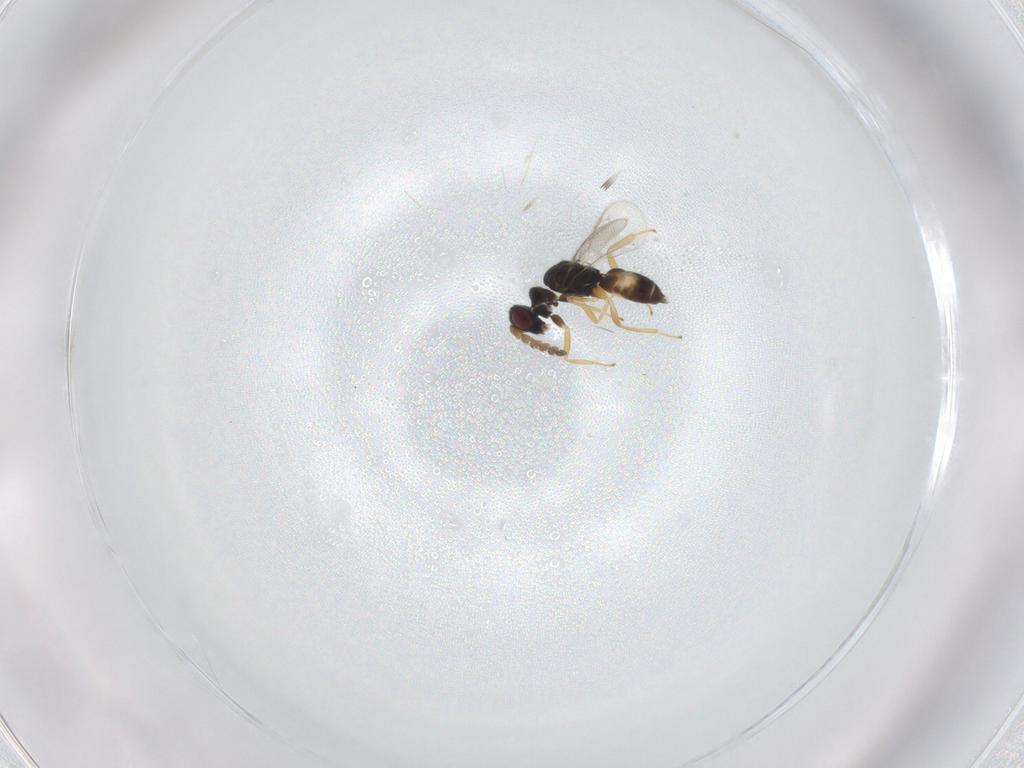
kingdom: Animalia
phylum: Arthropoda
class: Insecta
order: Hymenoptera
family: Eulophidae
